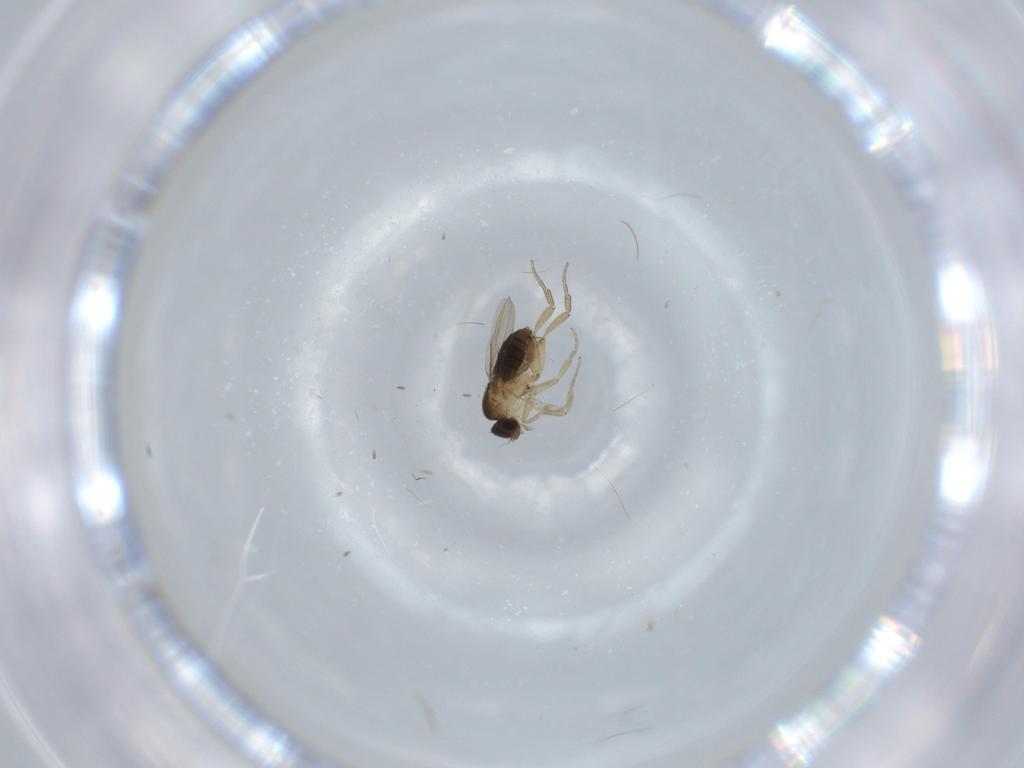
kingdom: Animalia
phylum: Arthropoda
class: Insecta
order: Diptera
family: Cecidomyiidae
